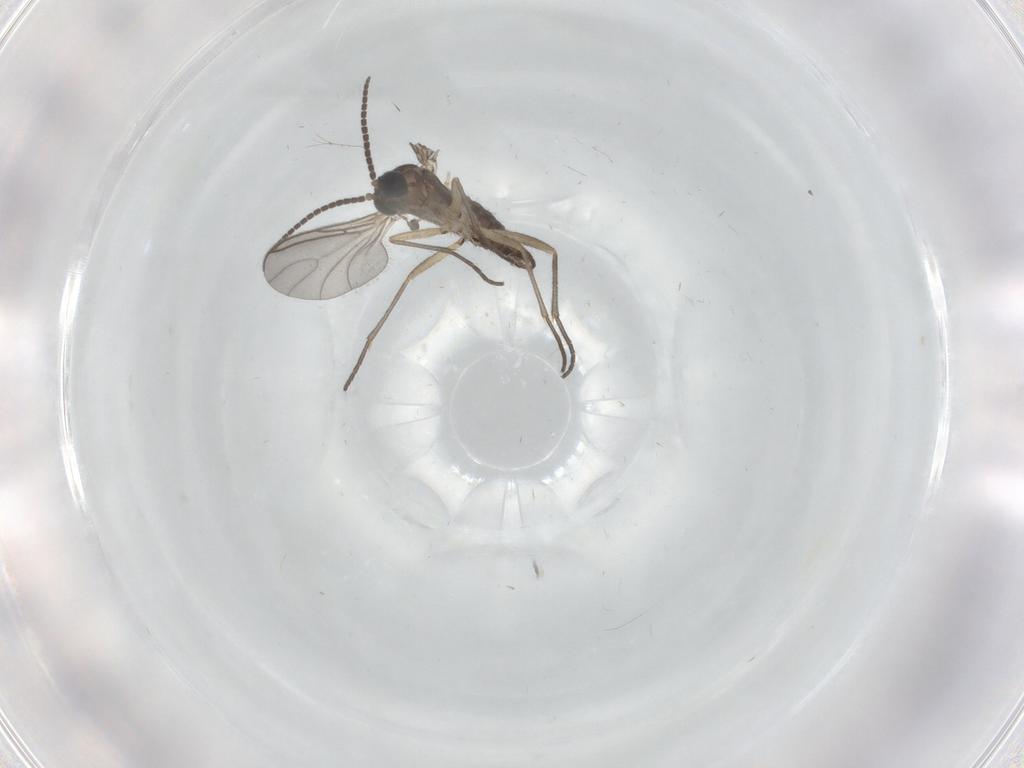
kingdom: Animalia
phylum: Arthropoda
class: Insecta
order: Diptera
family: Sciaridae
